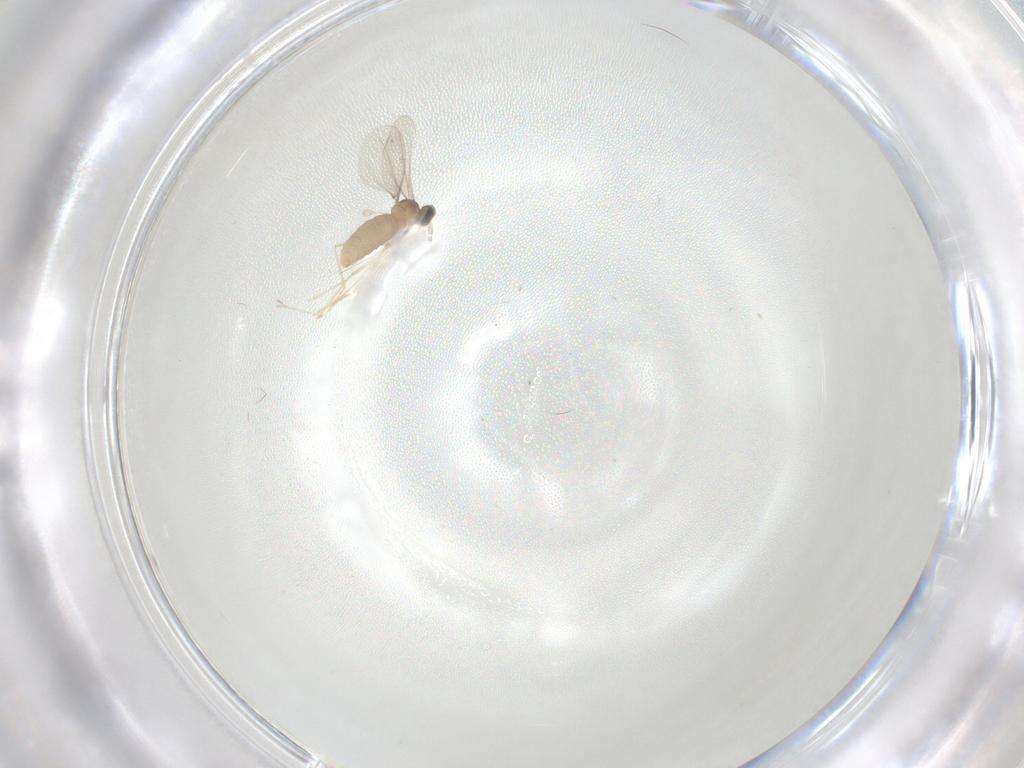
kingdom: Animalia
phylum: Arthropoda
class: Insecta
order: Diptera
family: Cecidomyiidae
